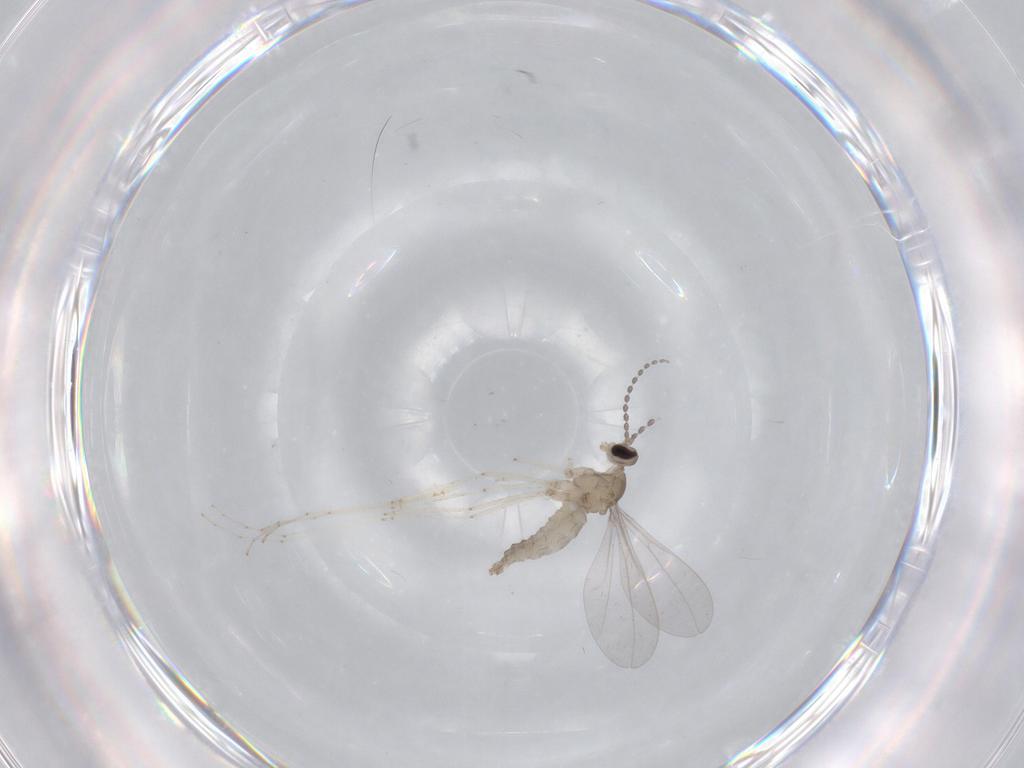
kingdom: Animalia
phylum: Arthropoda
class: Insecta
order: Diptera
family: Cecidomyiidae
